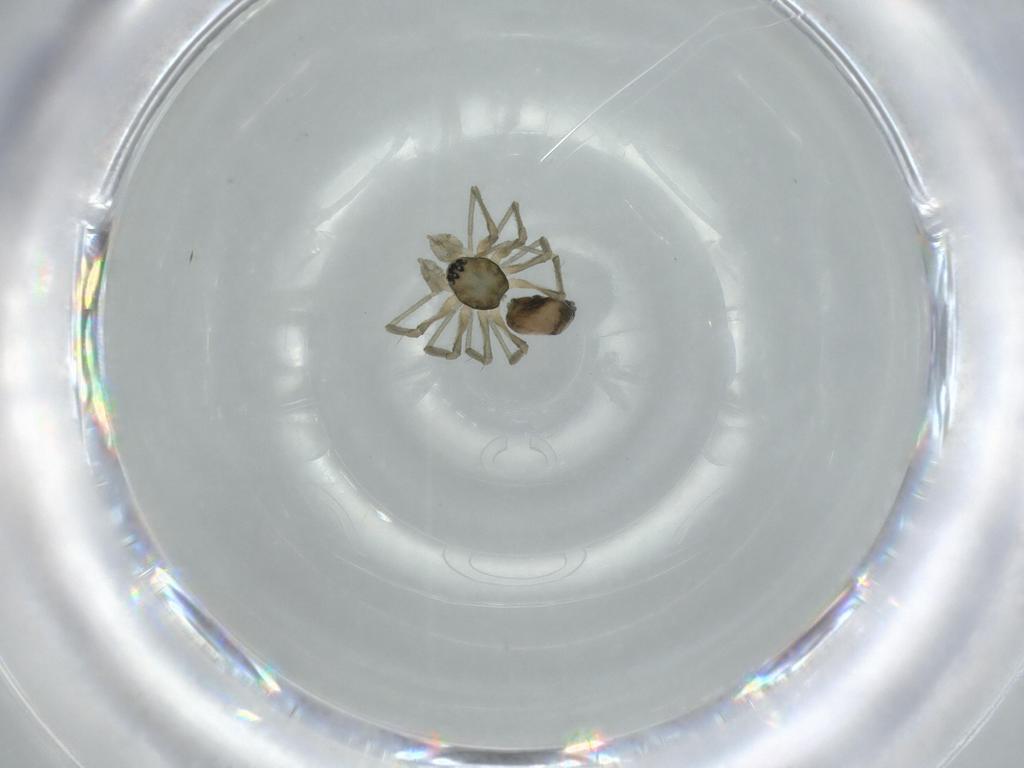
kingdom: Animalia
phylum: Arthropoda
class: Arachnida
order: Araneae
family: Linyphiidae
